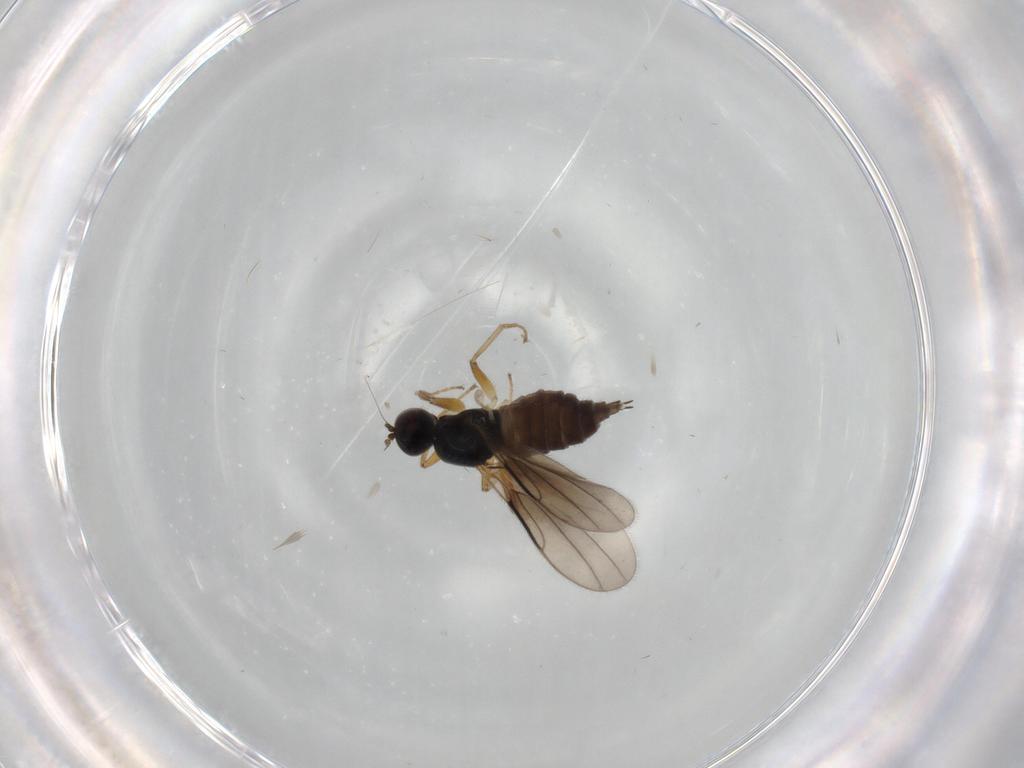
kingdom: Animalia
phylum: Arthropoda
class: Insecta
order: Diptera
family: Hybotidae
